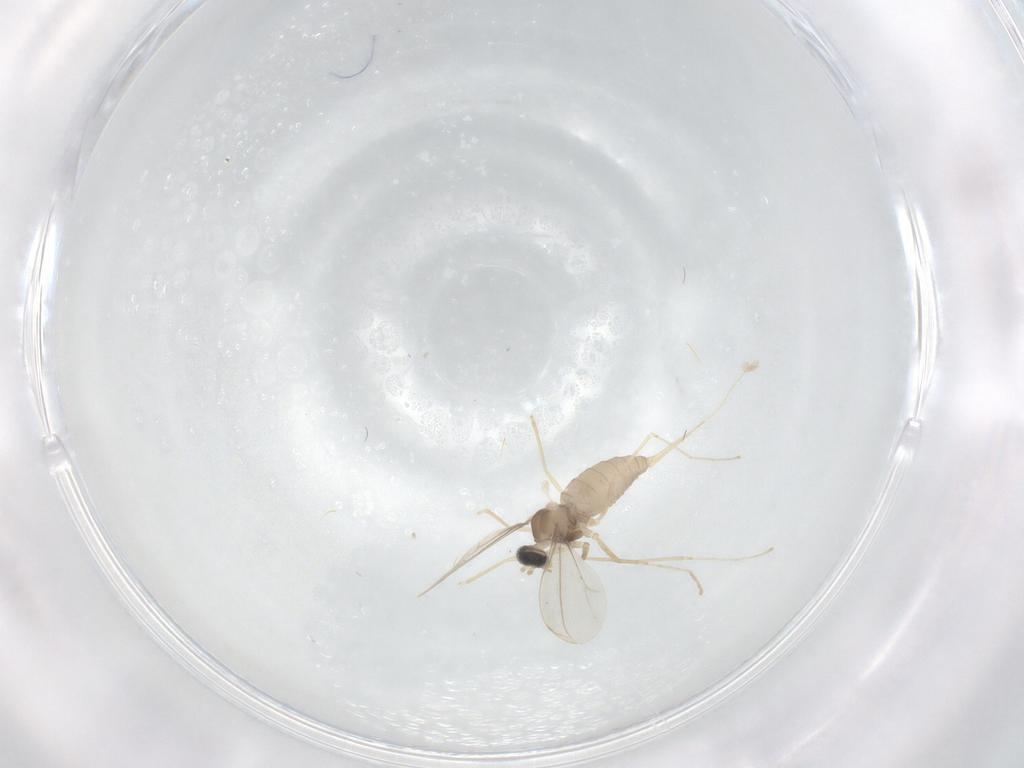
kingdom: Animalia
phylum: Arthropoda
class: Insecta
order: Diptera
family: Cecidomyiidae
